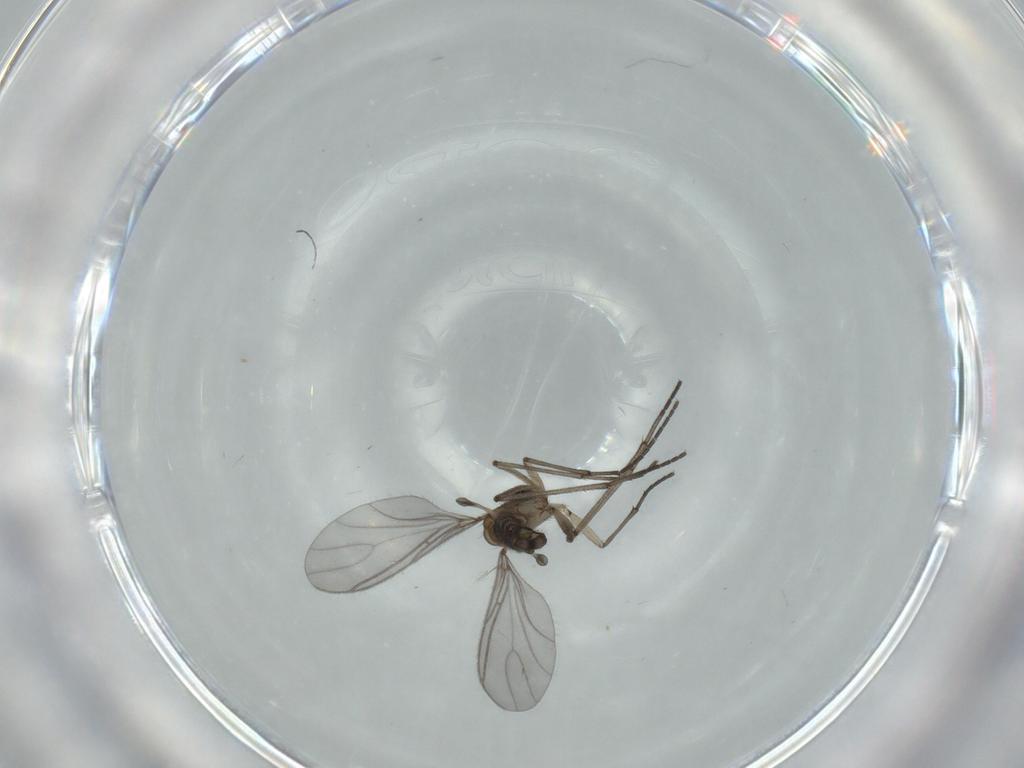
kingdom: Animalia
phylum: Arthropoda
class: Insecta
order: Diptera
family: Sciaridae
